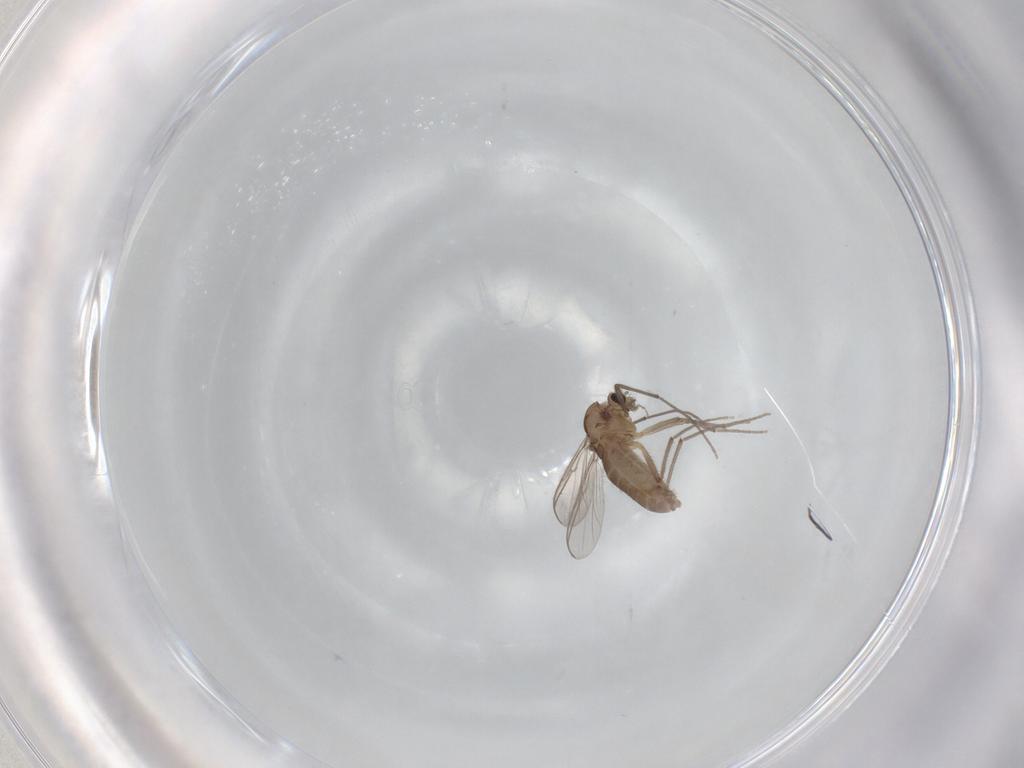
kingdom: Animalia
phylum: Arthropoda
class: Insecta
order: Diptera
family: Chironomidae
